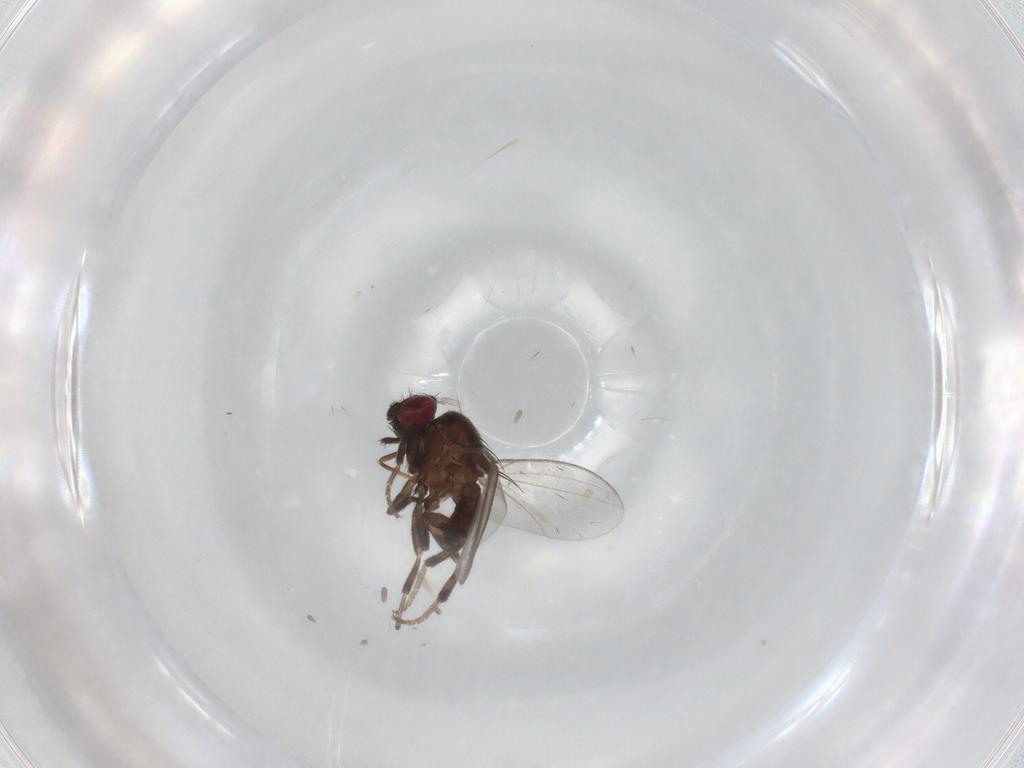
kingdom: Animalia
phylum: Arthropoda
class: Insecta
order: Diptera
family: Milichiidae
